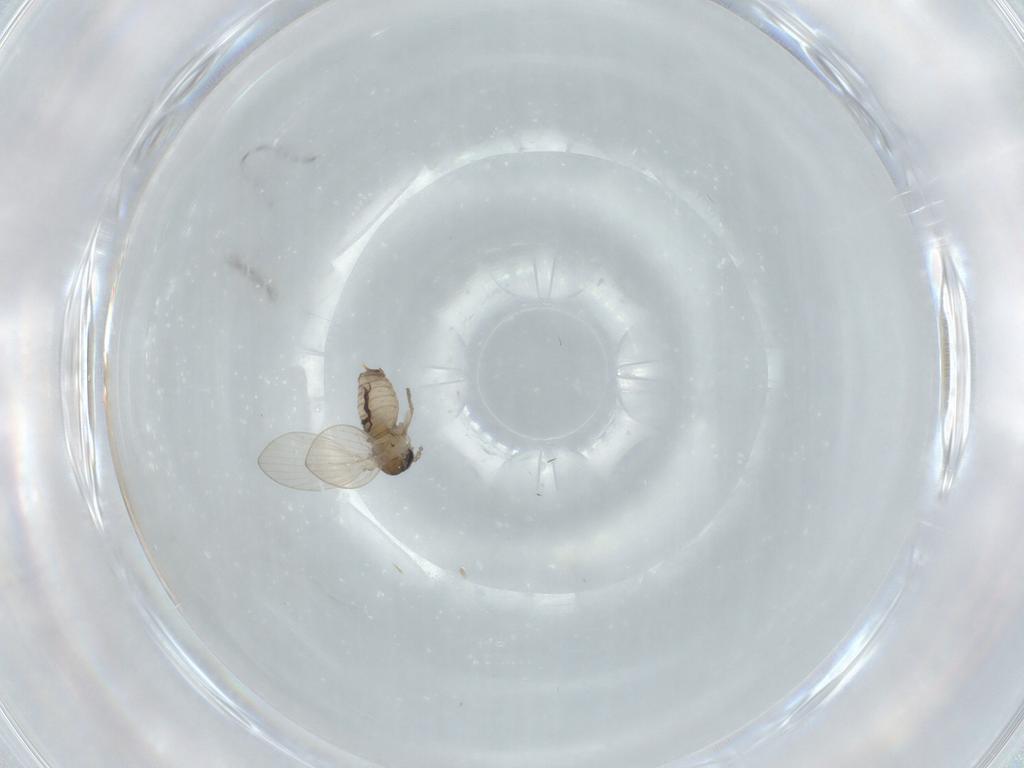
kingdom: Animalia
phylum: Arthropoda
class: Insecta
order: Diptera
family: Psychodidae
